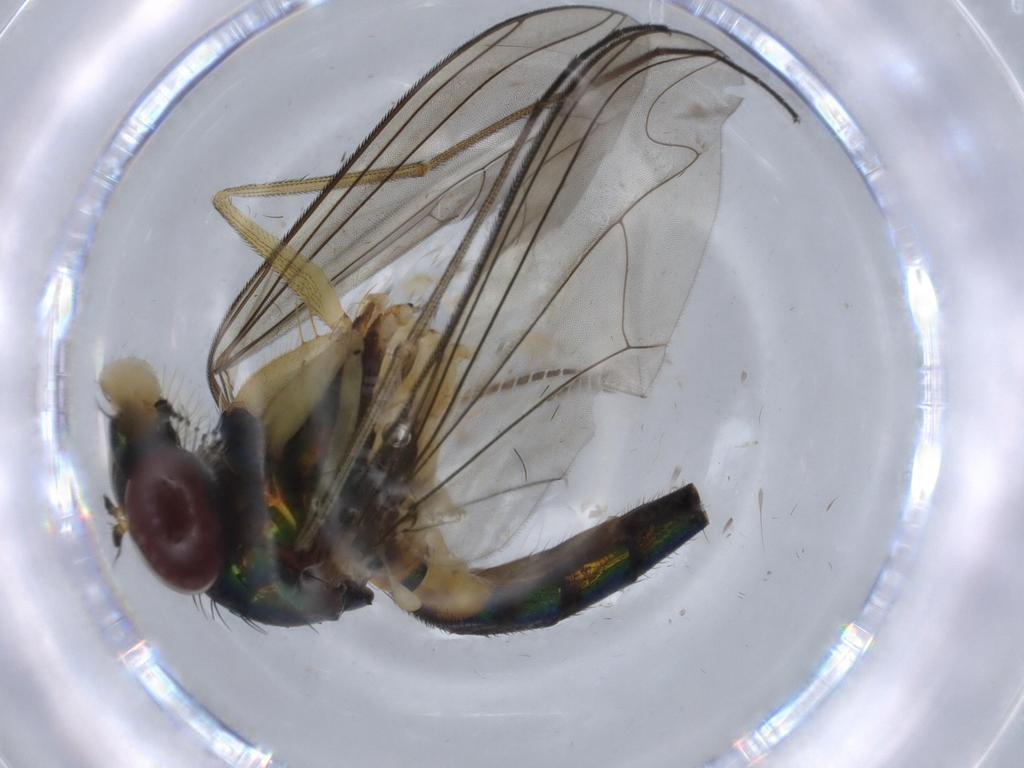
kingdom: Animalia
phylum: Arthropoda
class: Insecta
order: Diptera
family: Dolichopodidae
